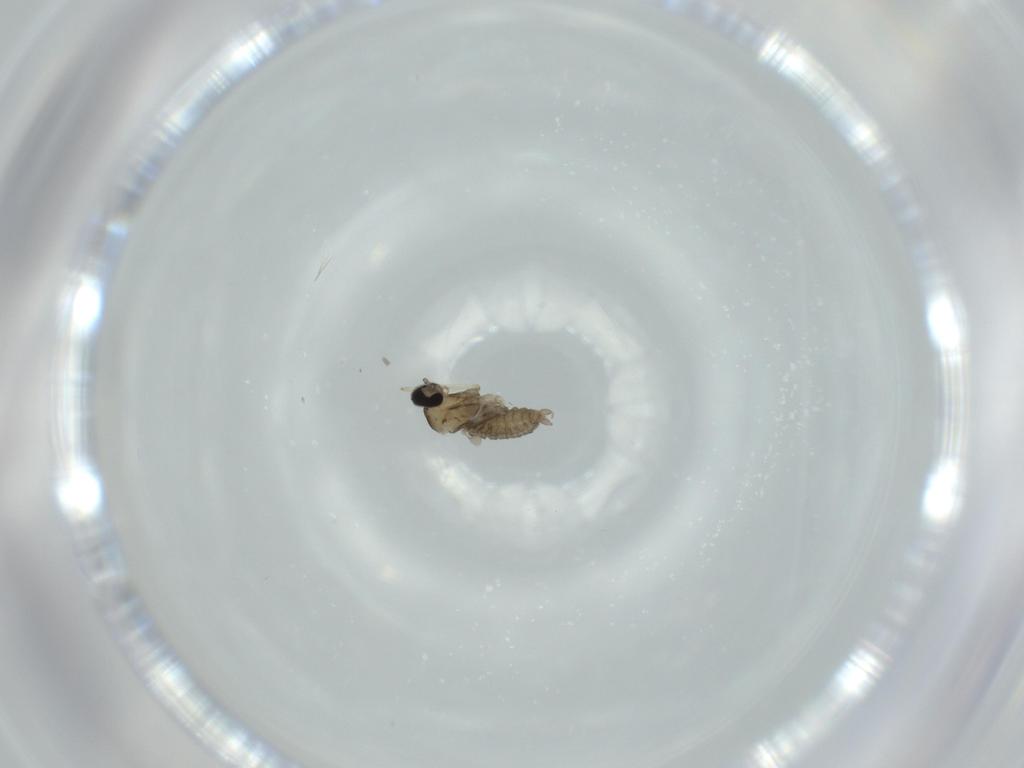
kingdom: Animalia
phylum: Arthropoda
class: Insecta
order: Diptera
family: Cecidomyiidae
